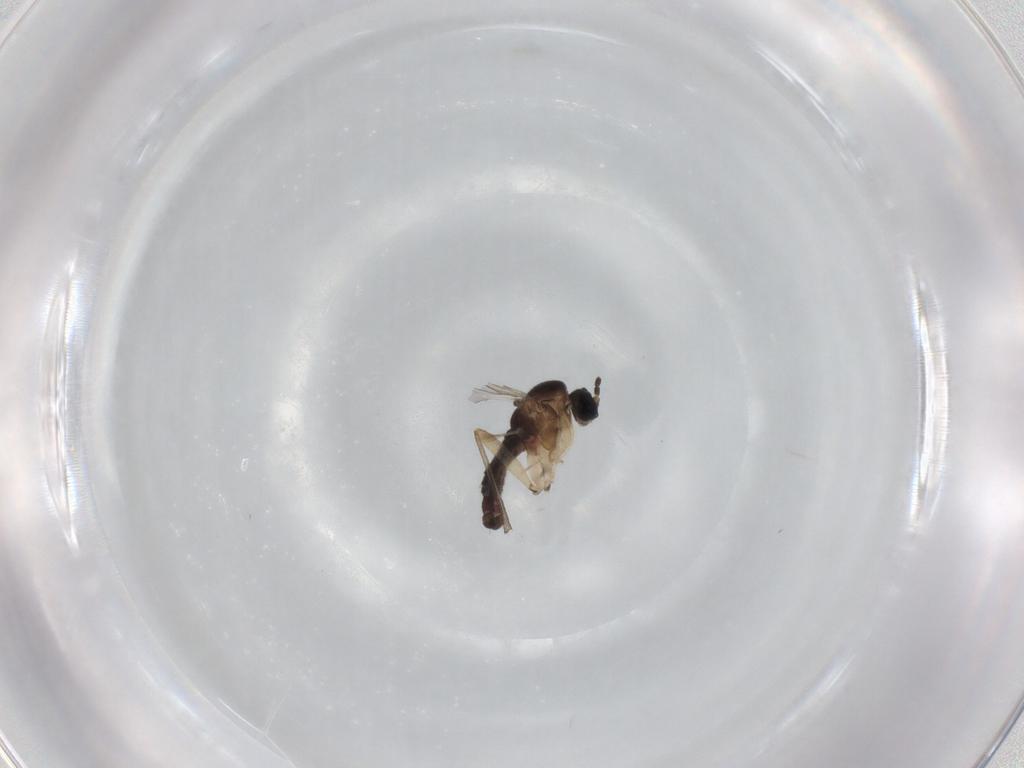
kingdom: Animalia
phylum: Arthropoda
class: Insecta
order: Diptera
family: Sciaridae
